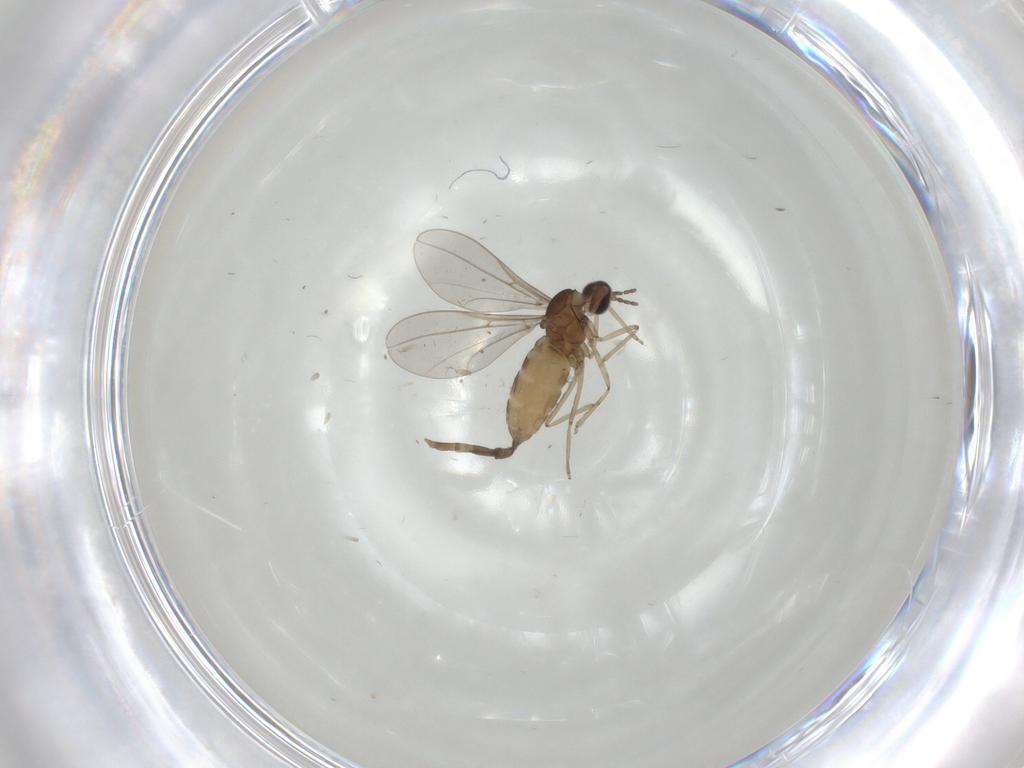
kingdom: Animalia
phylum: Arthropoda
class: Insecta
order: Diptera
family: Cecidomyiidae
